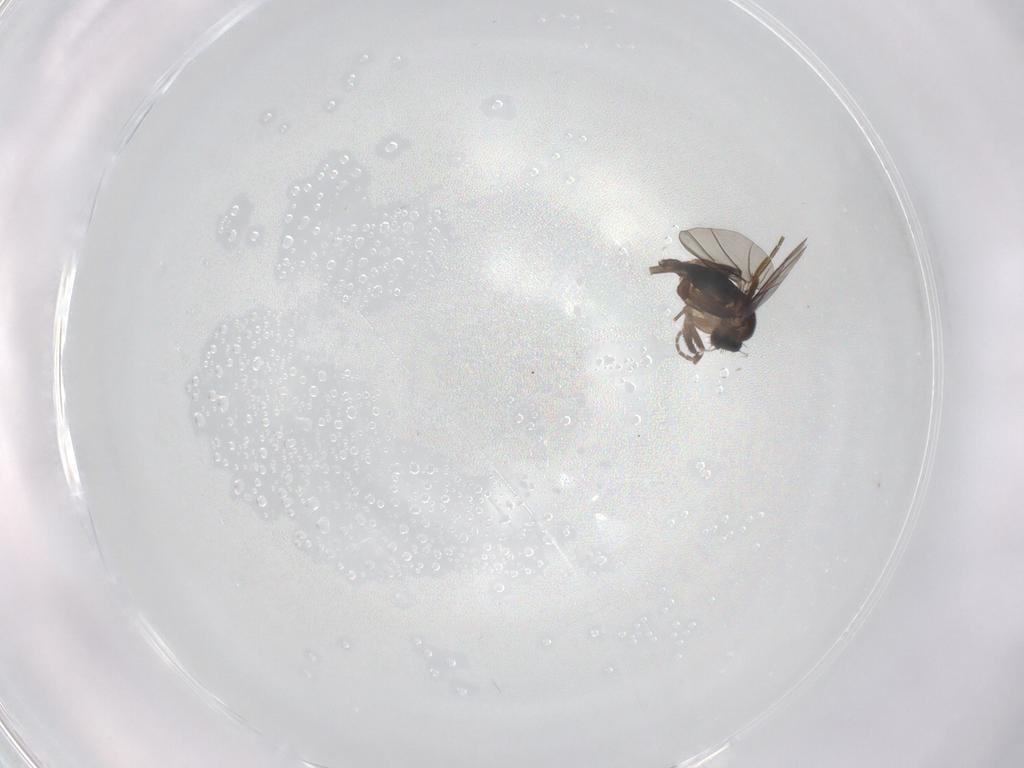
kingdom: Animalia
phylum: Arthropoda
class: Insecta
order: Diptera
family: Phoridae
